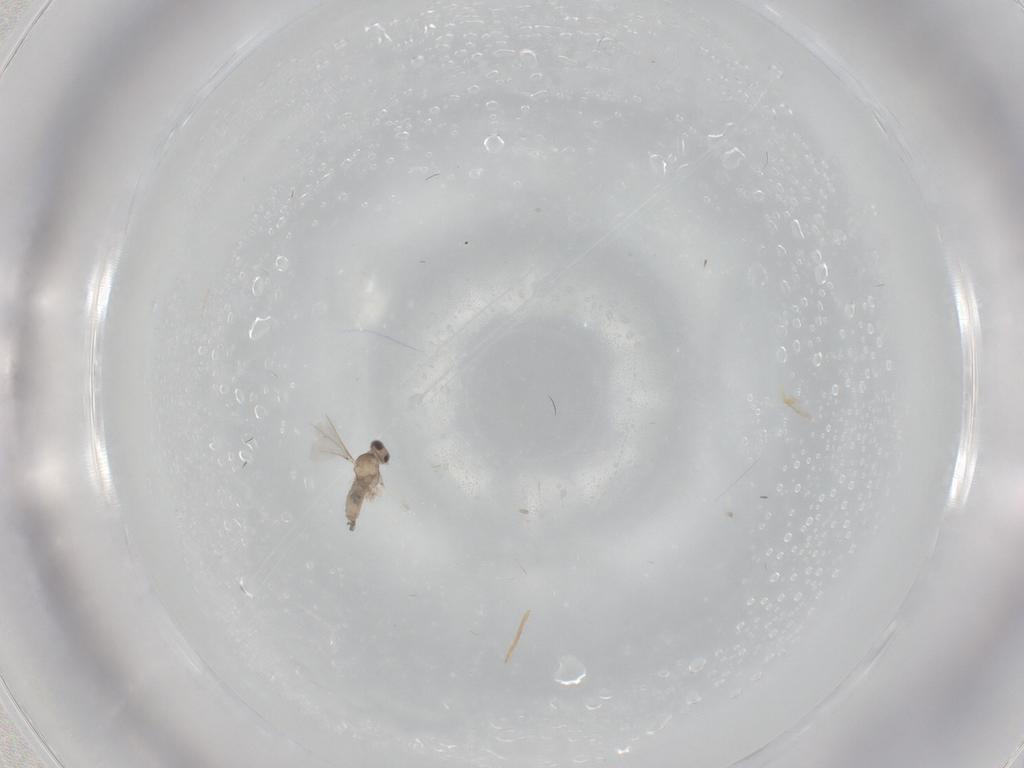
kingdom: Animalia
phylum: Arthropoda
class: Insecta
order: Diptera
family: Cecidomyiidae
